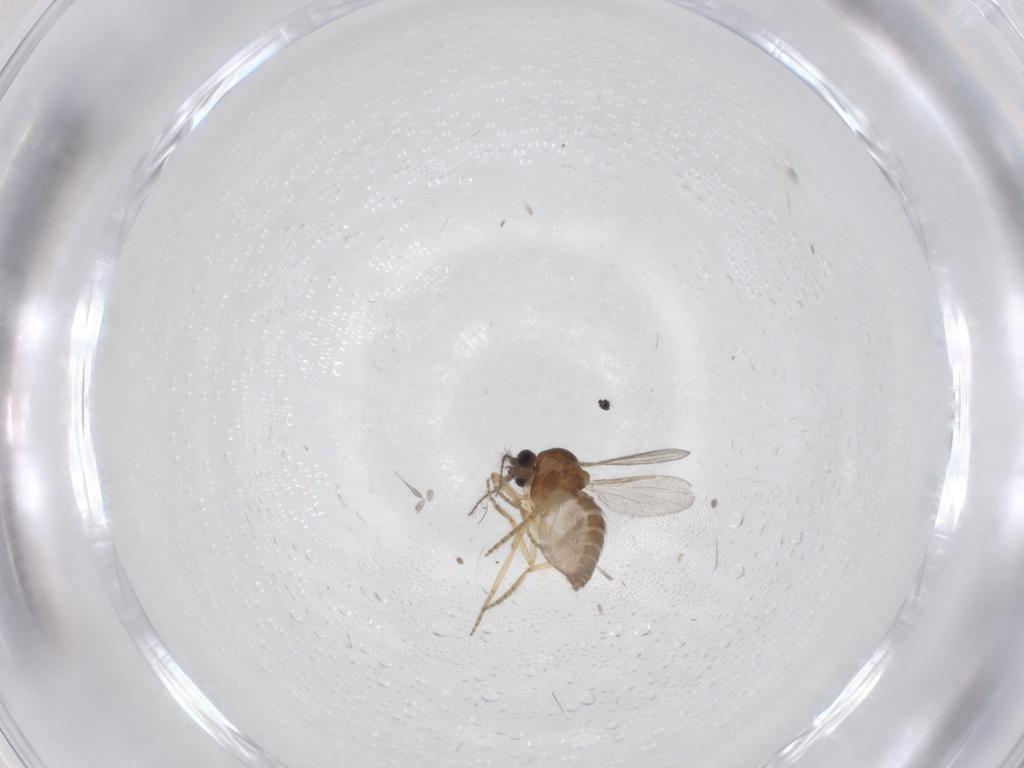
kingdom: Animalia
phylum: Arthropoda
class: Insecta
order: Diptera
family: Ceratopogonidae
